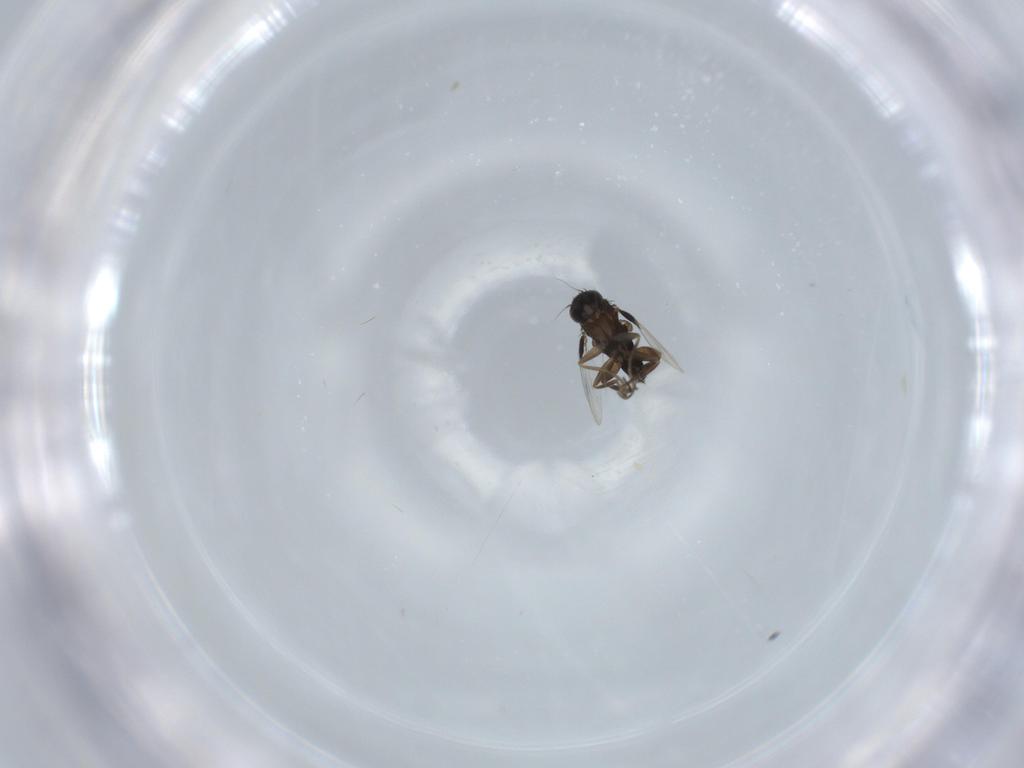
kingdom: Animalia
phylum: Arthropoda
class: Insecta
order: Diptera
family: Phoridae
